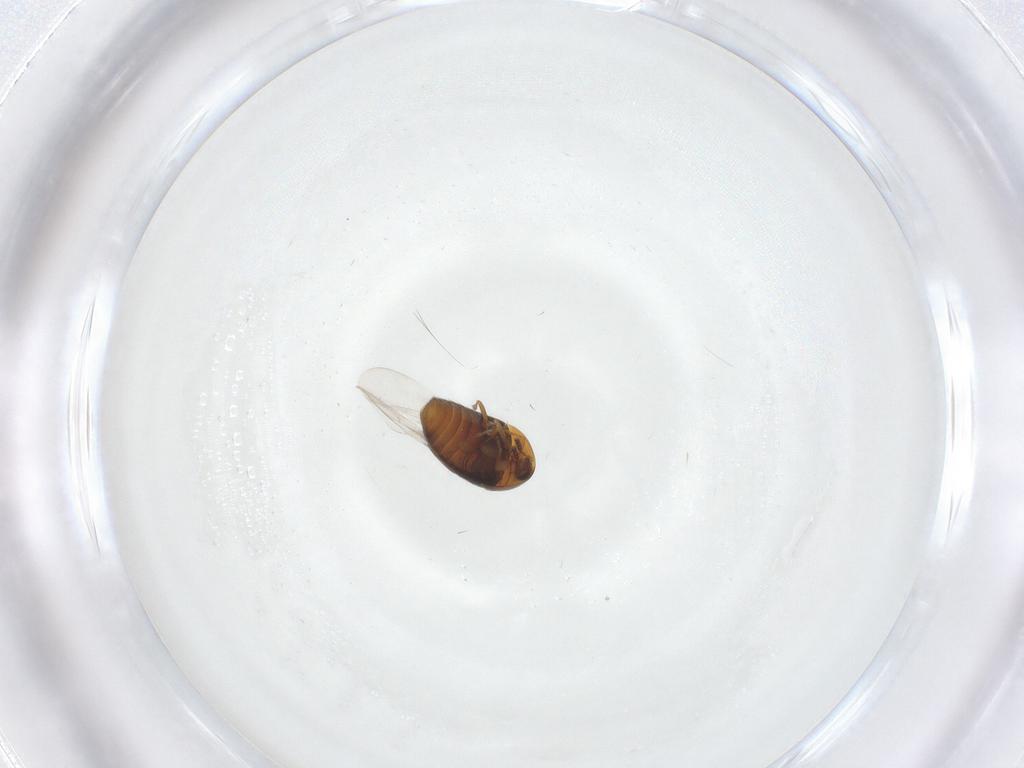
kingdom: Animalia
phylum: Arthropoda
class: Insecta
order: Coleoptera
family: Corylophidae
